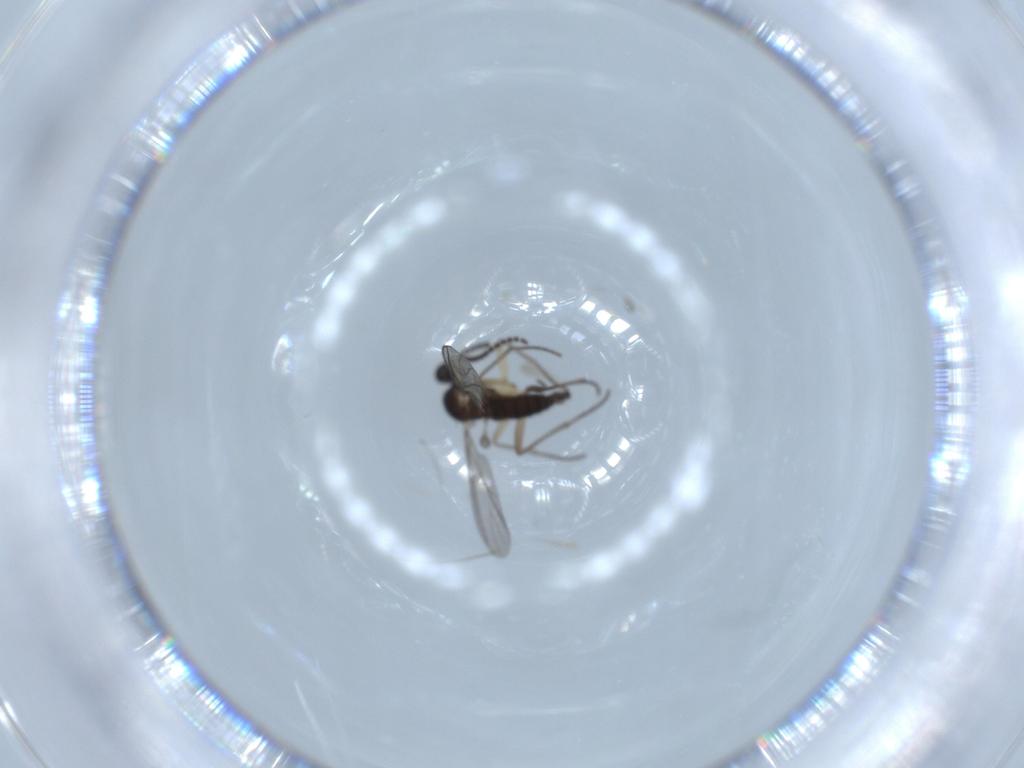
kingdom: Animalia
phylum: Arthropoda
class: Insecta
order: Diptera
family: Sciaridae
